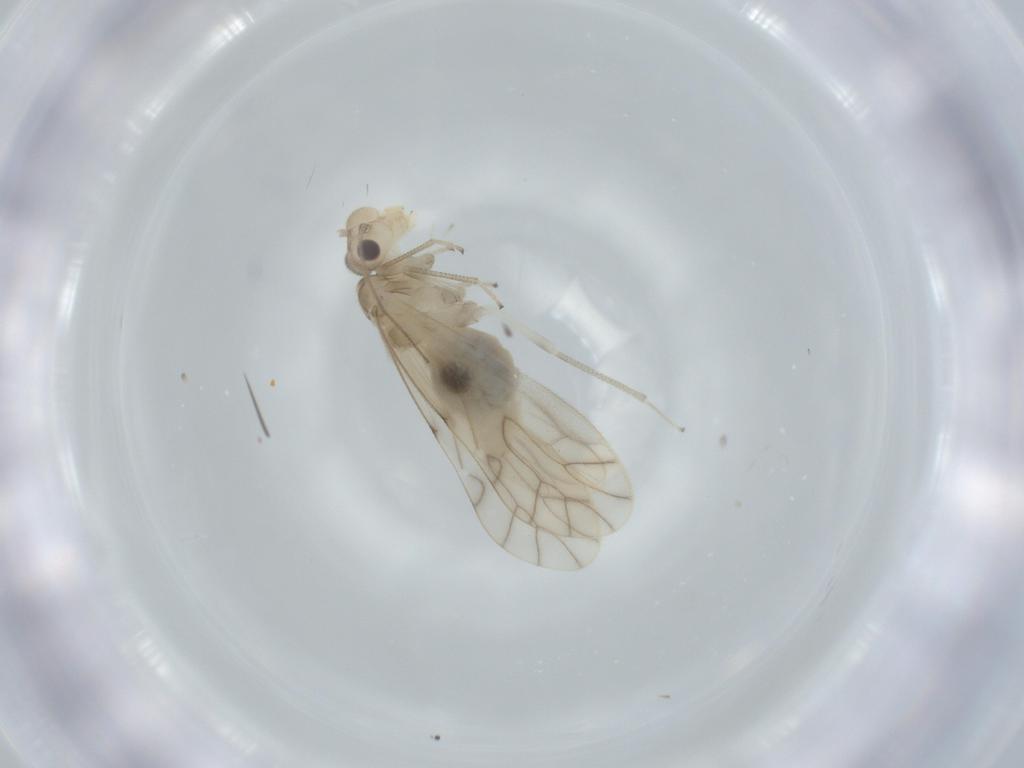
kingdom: Animalia
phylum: Arthropoda
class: Insecta
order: Psocodea
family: Caeciliusidae
